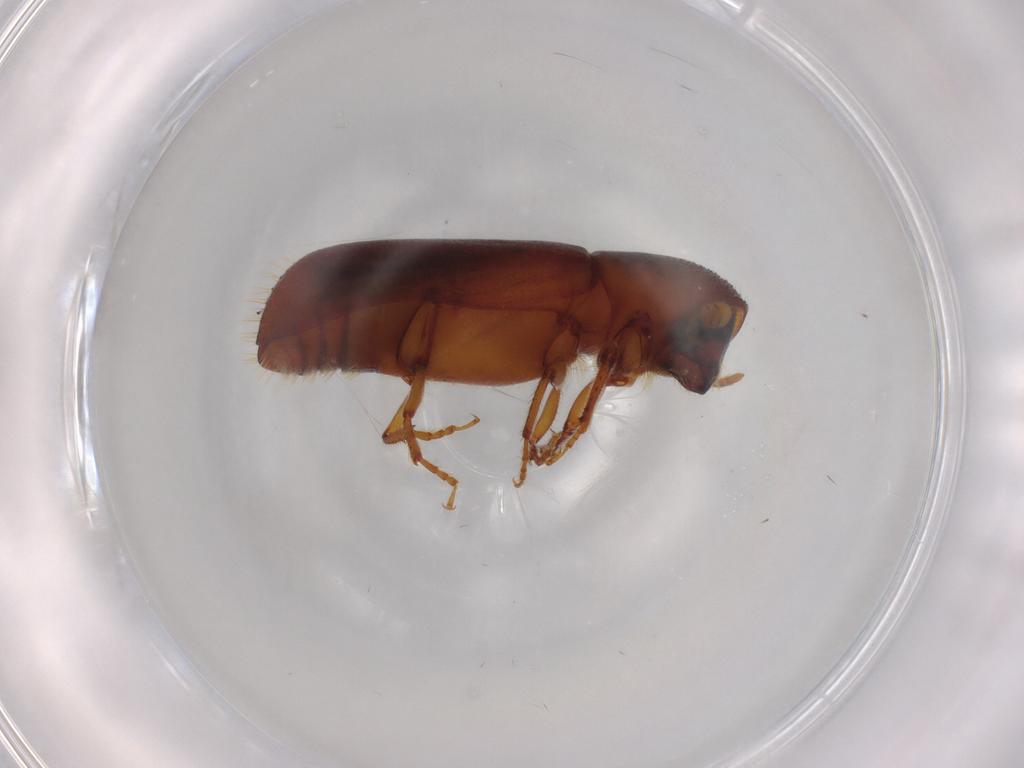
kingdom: Animalia
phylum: Arthropoda
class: Insecta
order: Coleoptera
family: Curculionidae
